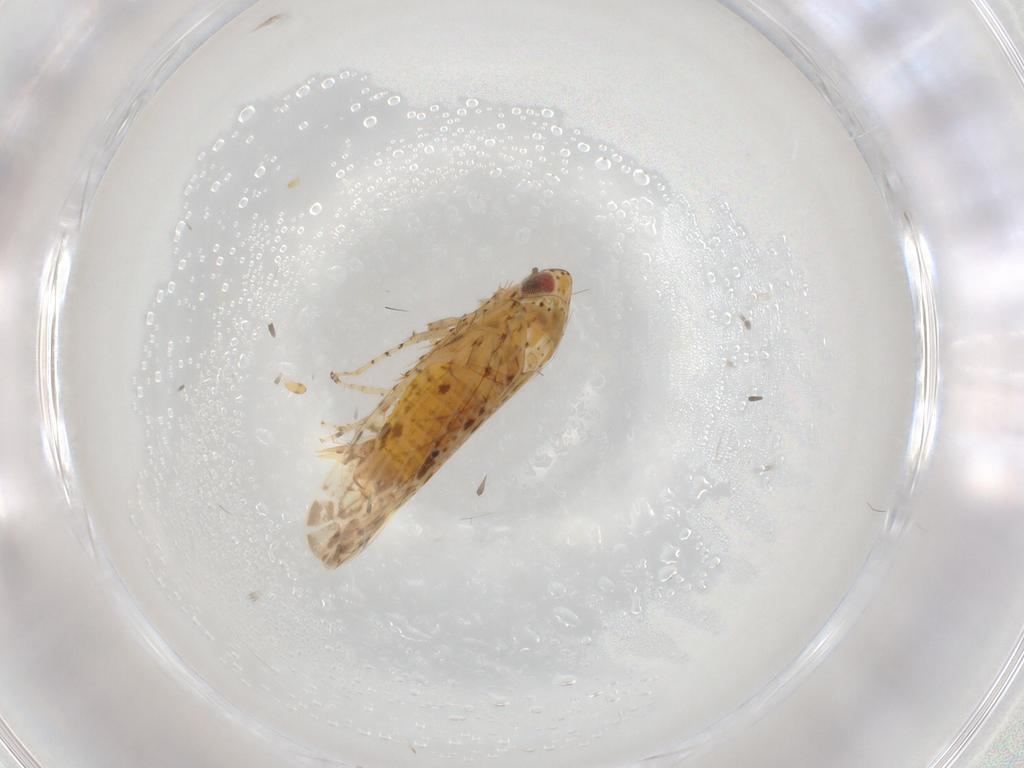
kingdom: Animalia
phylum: Arthropoda
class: Insecta
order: Hemiptera
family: Cicadellidae
